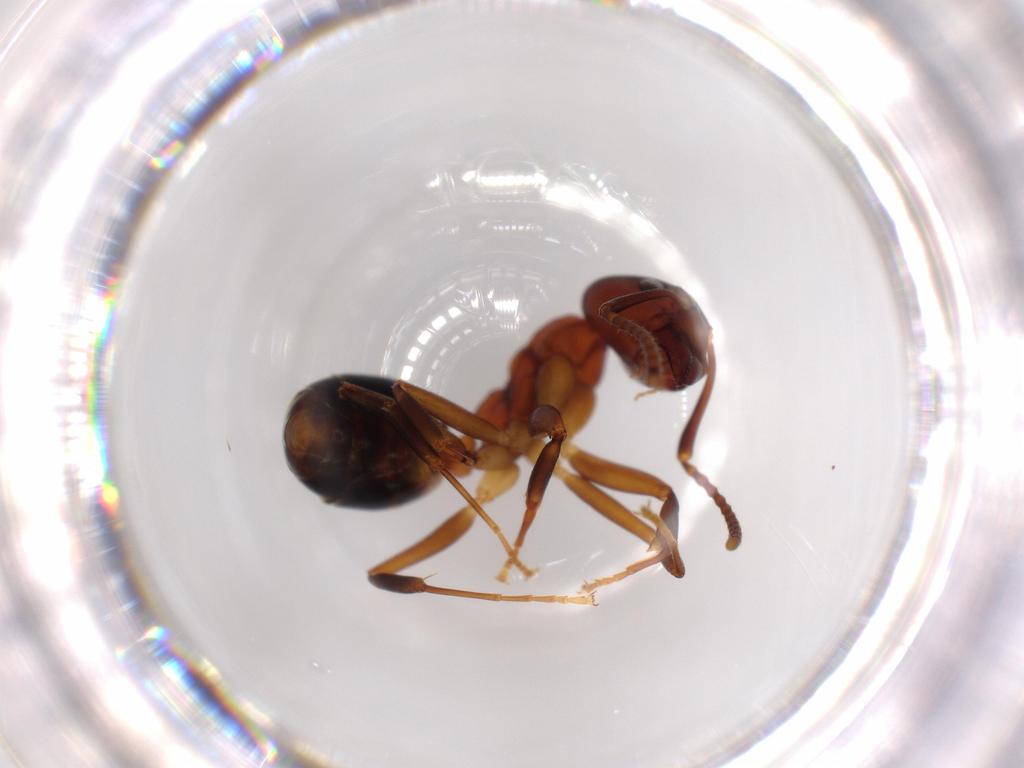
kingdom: Animalia
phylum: Arthropoda
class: Insecta
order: Hymenoptera
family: Formicidae
